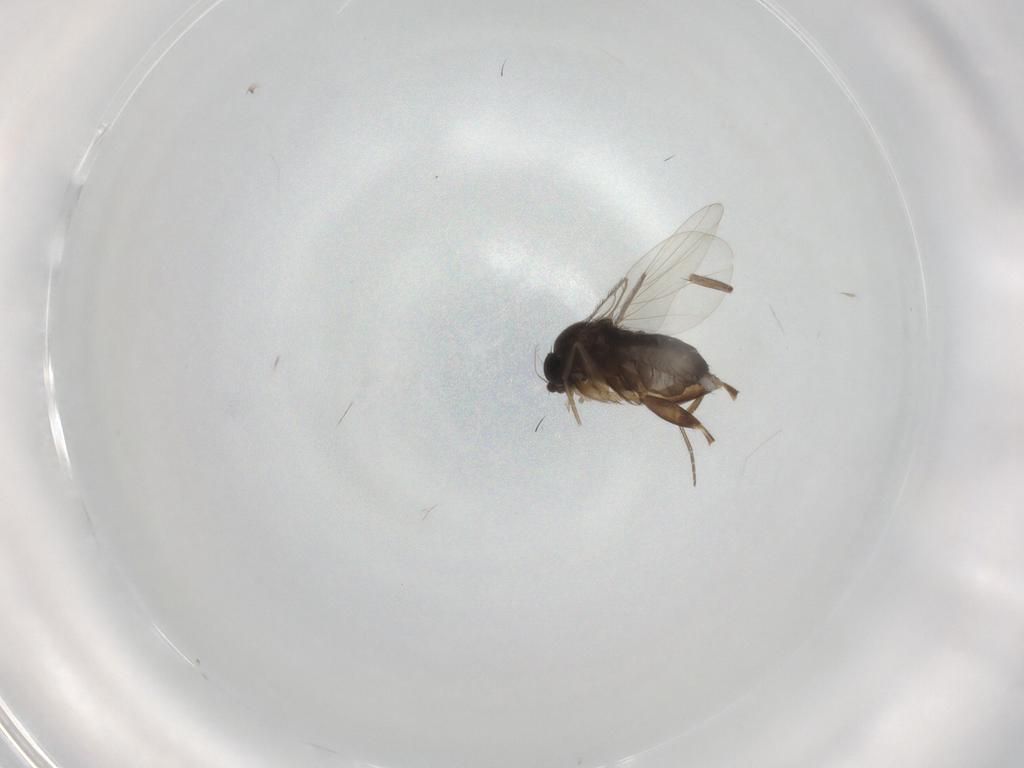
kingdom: Animalia
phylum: Arthropoda
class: Insecta
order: Diptera
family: Chironomidae
